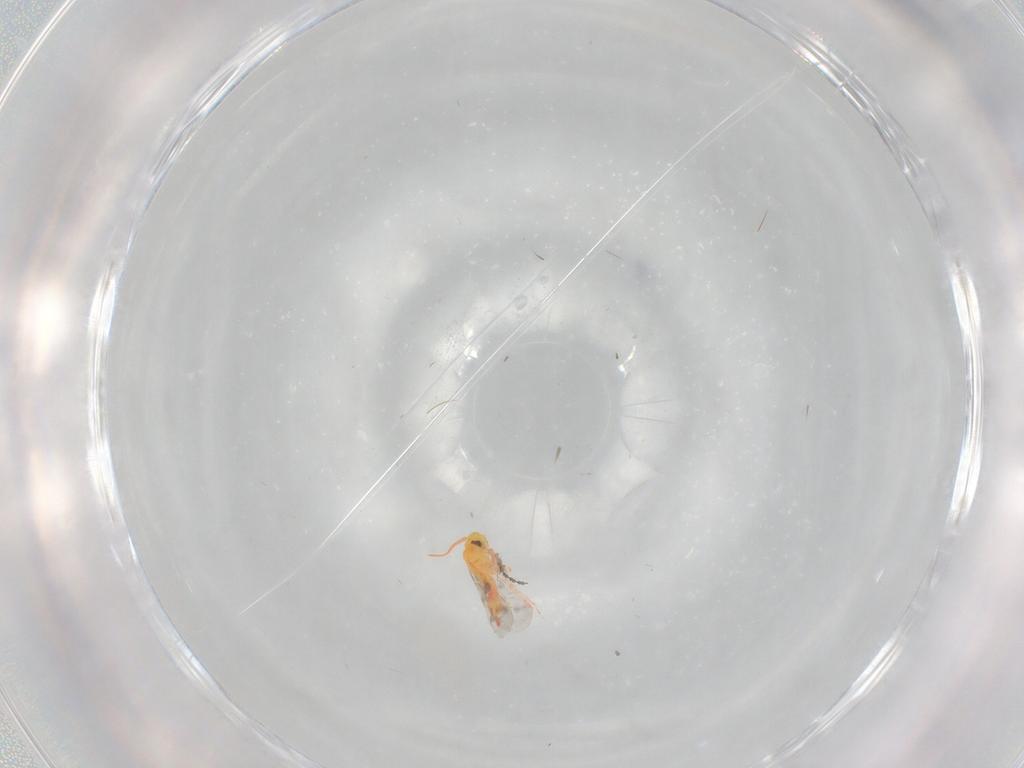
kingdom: Animalia
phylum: Arthropoda
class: Insecta
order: Hemiptera
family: Aleyrodidae
